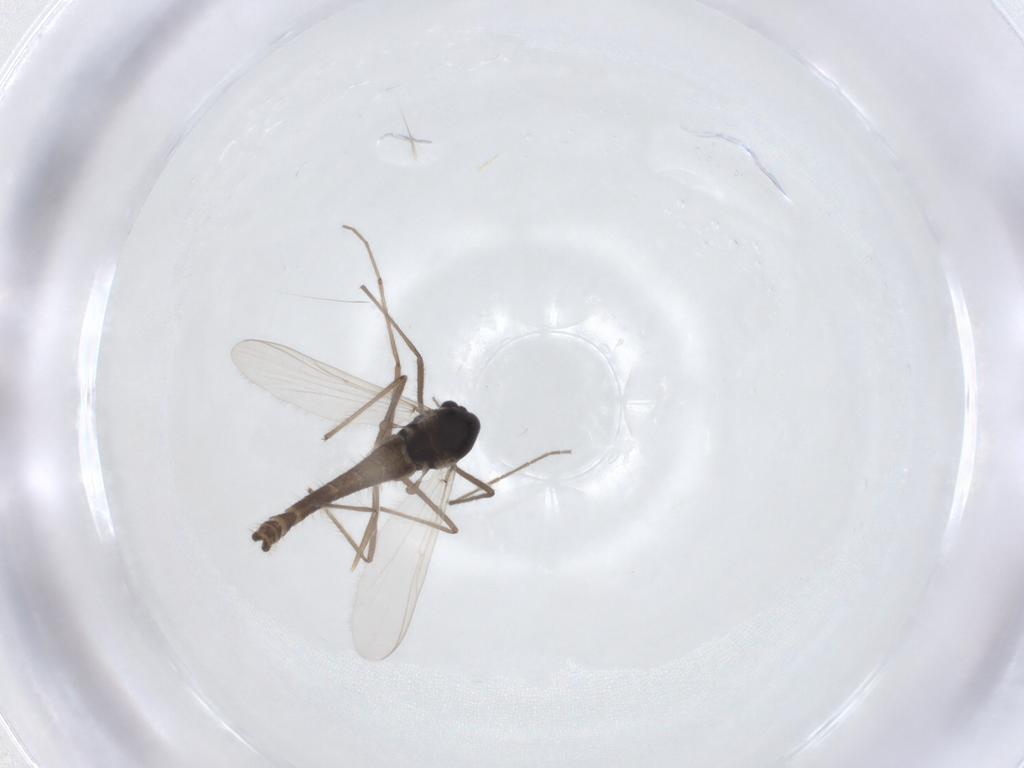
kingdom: Animalia
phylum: Arthropoda
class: Insecta
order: Diptera
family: Chironomidae
